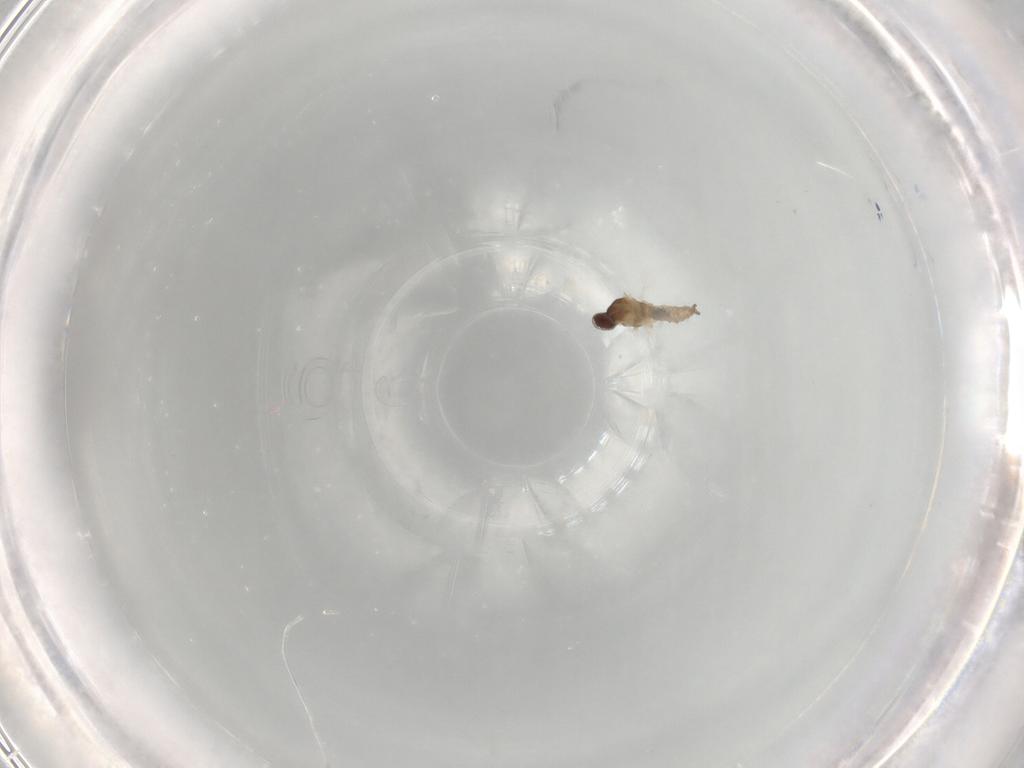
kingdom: Animalia
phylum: Arthropoda
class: Insecta
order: Diptera
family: Cecidomyiidae
